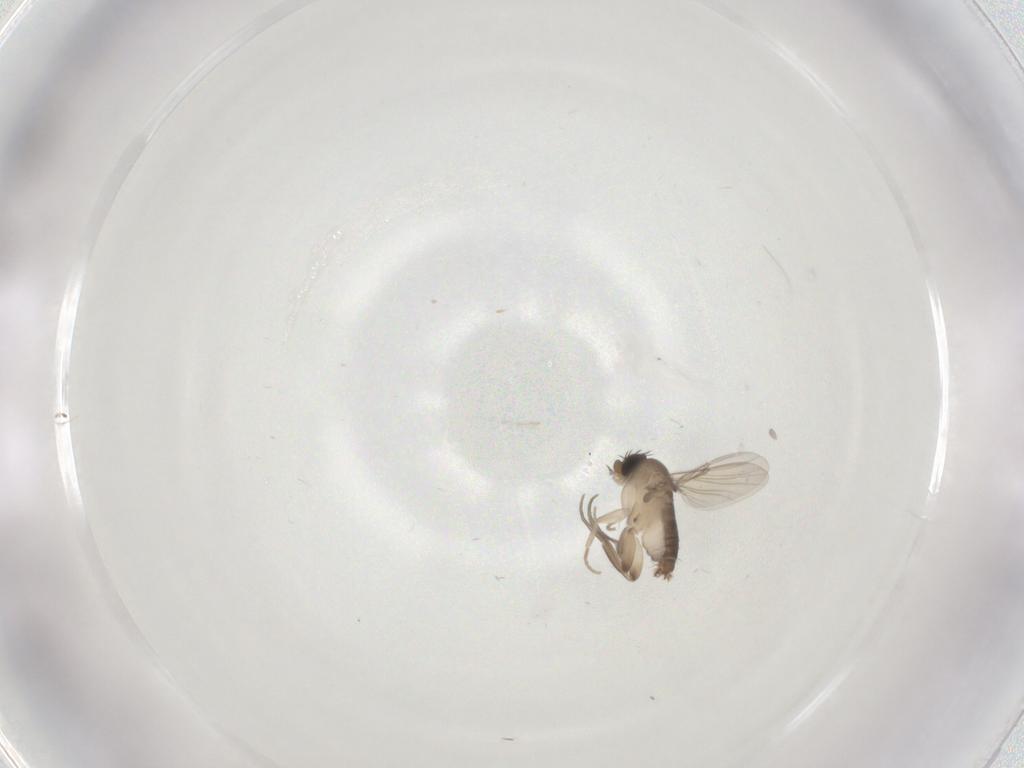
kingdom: Animalia
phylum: Arthropoda
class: Insecta
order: Diptera
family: Phoridae
